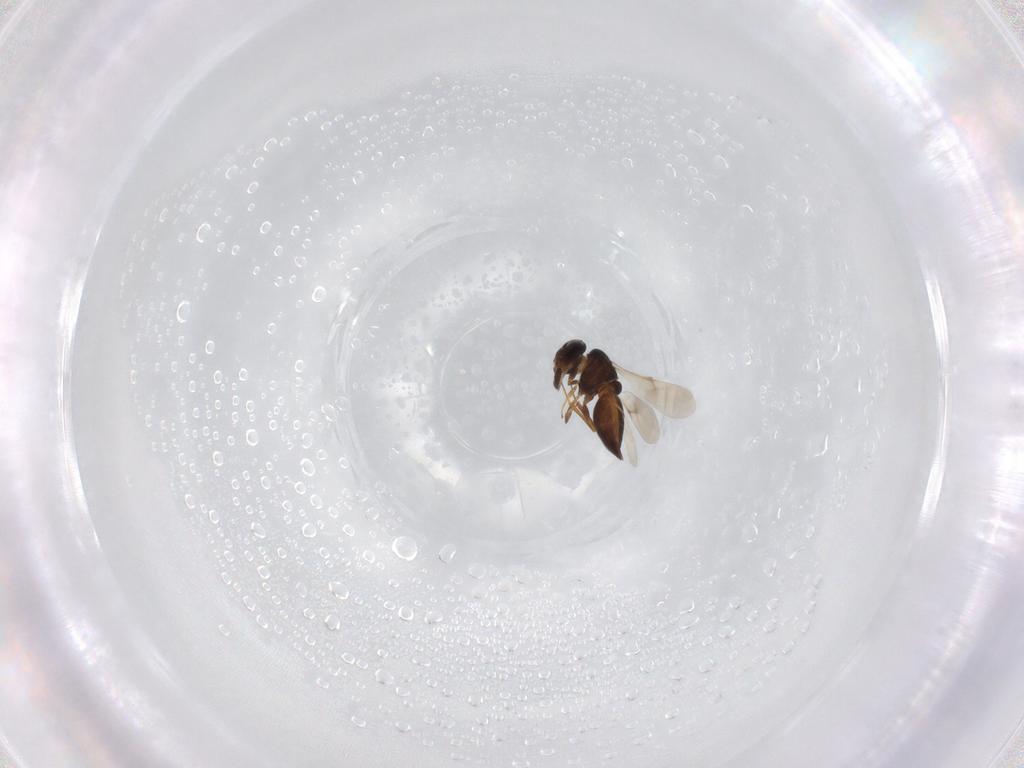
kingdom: Animalia
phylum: Arthropoda
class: Insecta
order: Hymenoptera
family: Scelionidae
